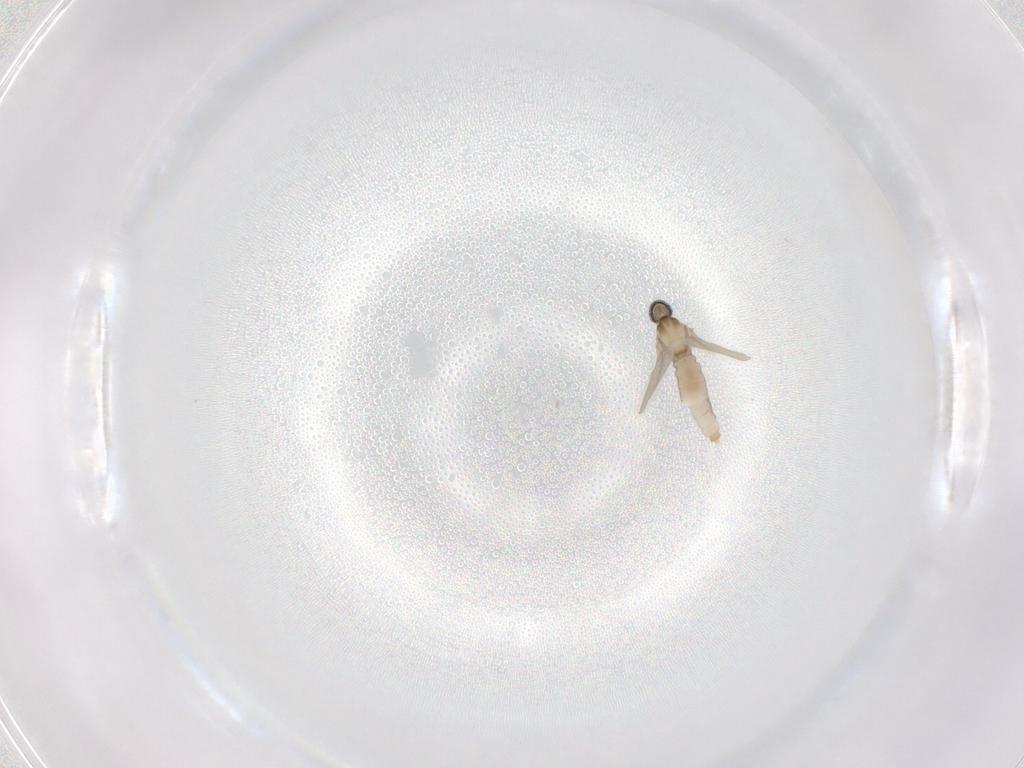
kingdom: Animalia
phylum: Arthropoda
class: Insecta
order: Diptera
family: Cecidomyiidae
